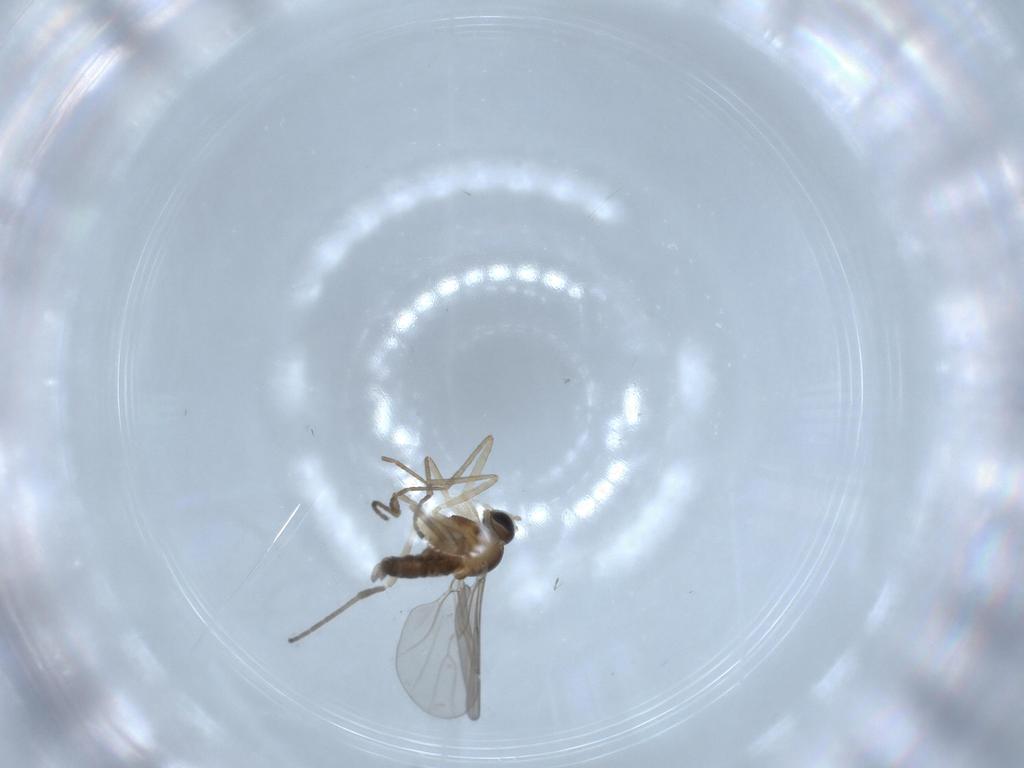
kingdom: Animalia
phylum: Arthropoda
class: Insecta
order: Diptera
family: Cecidomyiidae
